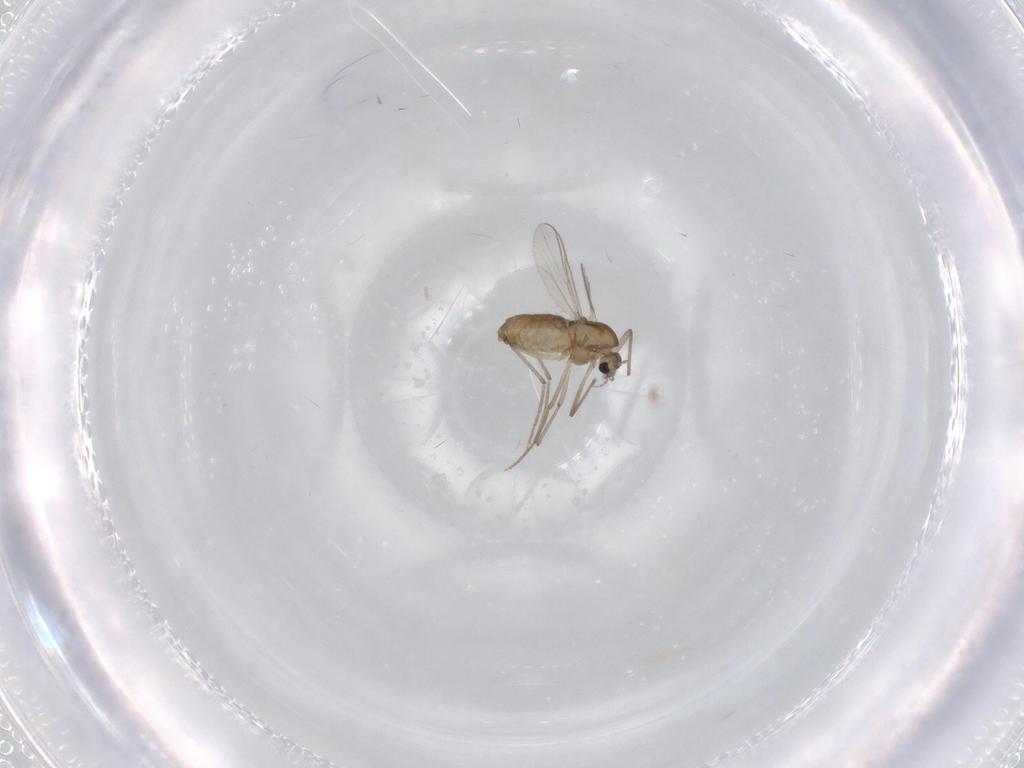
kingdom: Animalia
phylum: Arthropoda
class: Insecta
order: Diptera
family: Chironomidae
